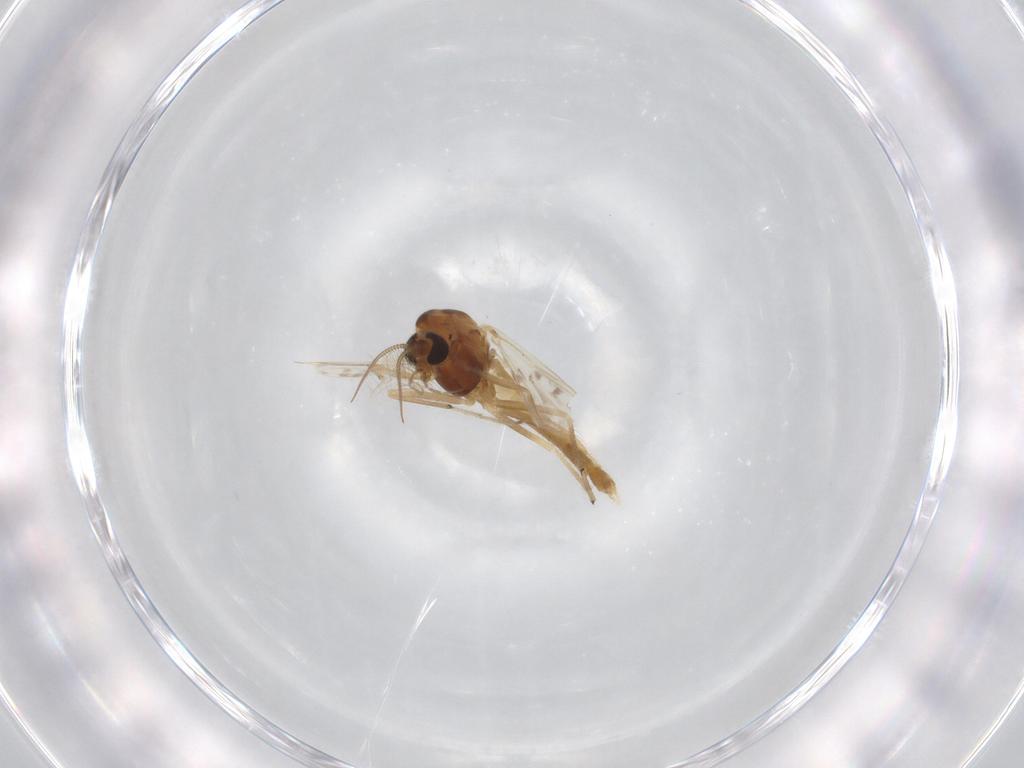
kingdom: Animalia
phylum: Arthropoda
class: Insecta
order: Diptera
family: Chironomidae
